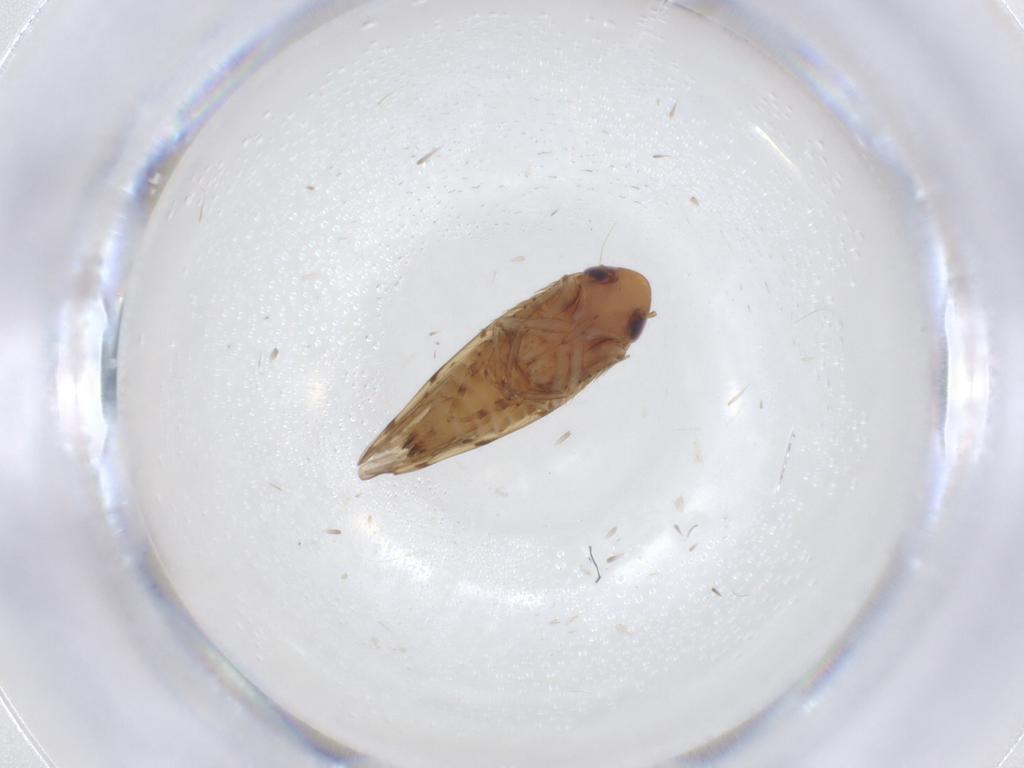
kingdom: Animalia
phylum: Arthropoda
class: Insecta
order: Hemiptera
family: Cicadellidae
